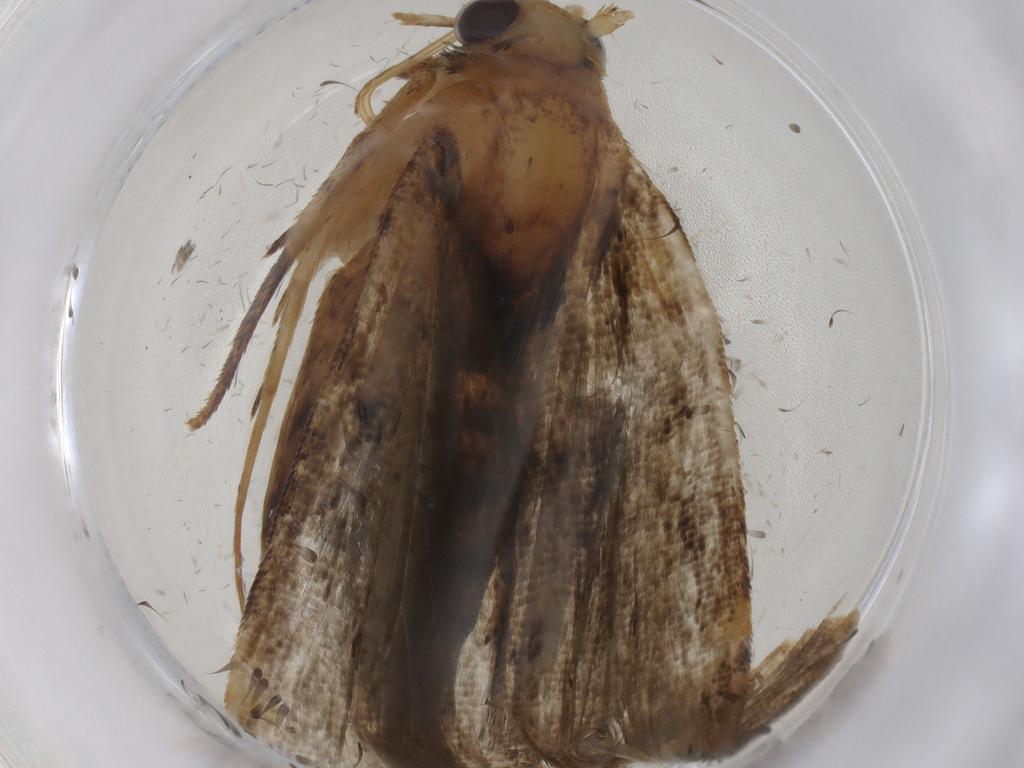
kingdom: Animalia
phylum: Arthropoda
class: Insecta
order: Lepidoptera
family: Erebidae
